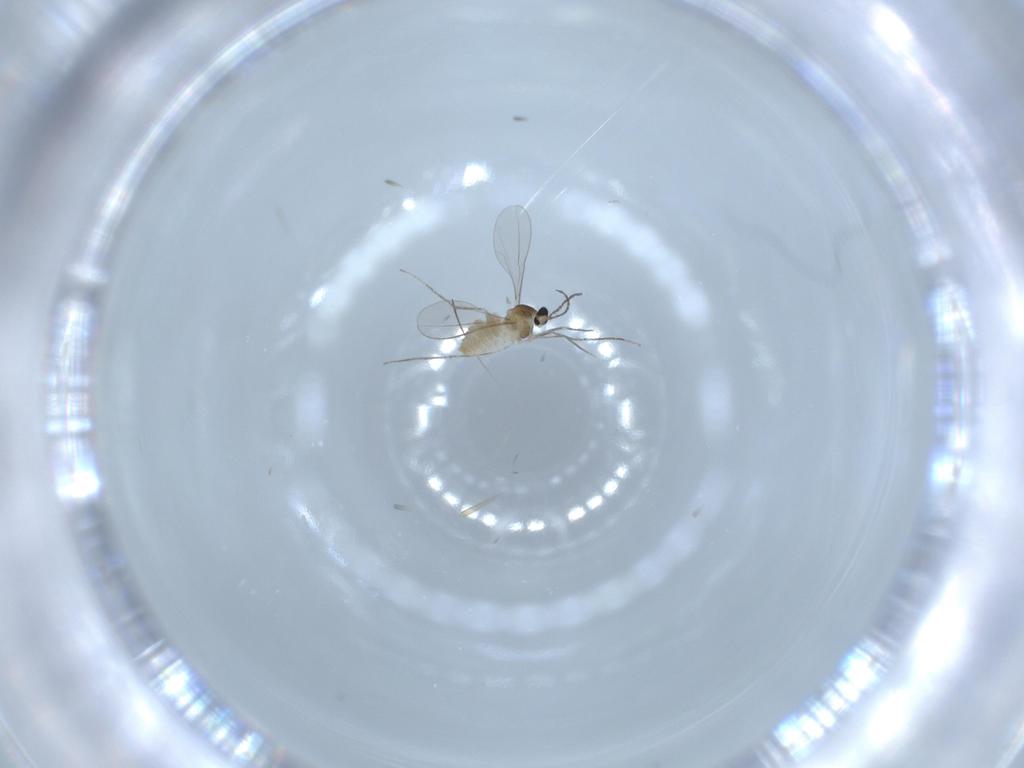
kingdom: Animalia
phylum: Arthropoda
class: Insecta
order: Diptera
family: Cecidomyiidae
